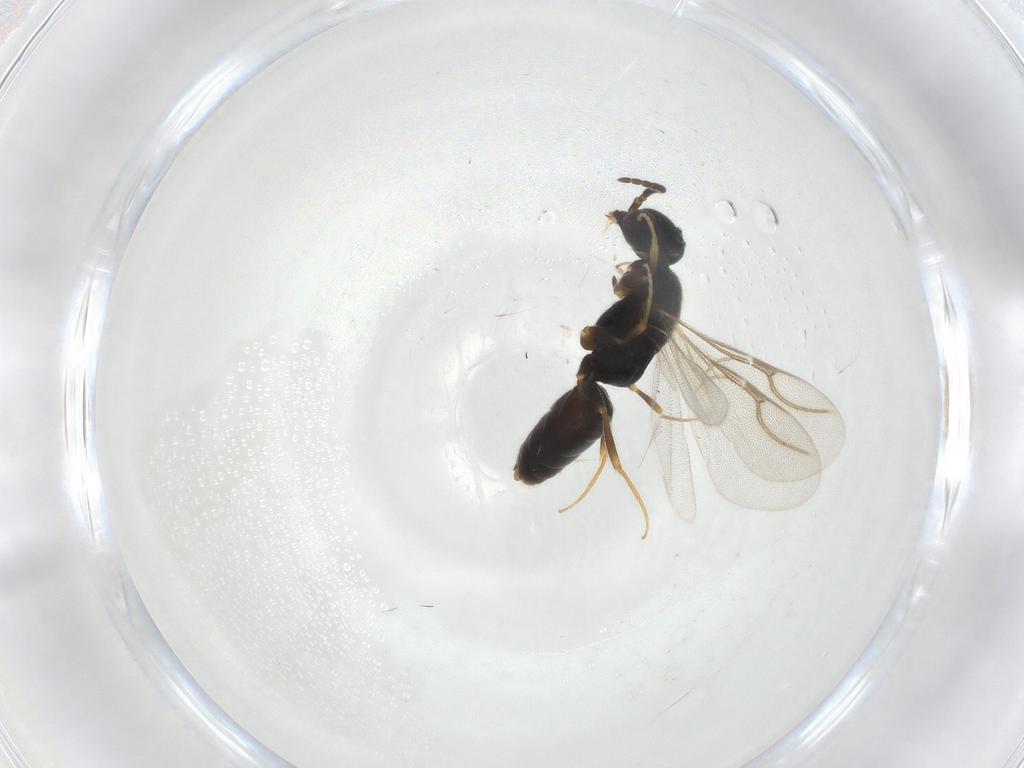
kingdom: Animalia
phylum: Arthropoda
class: Insecta
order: Hymenoptera
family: Bethylidae
